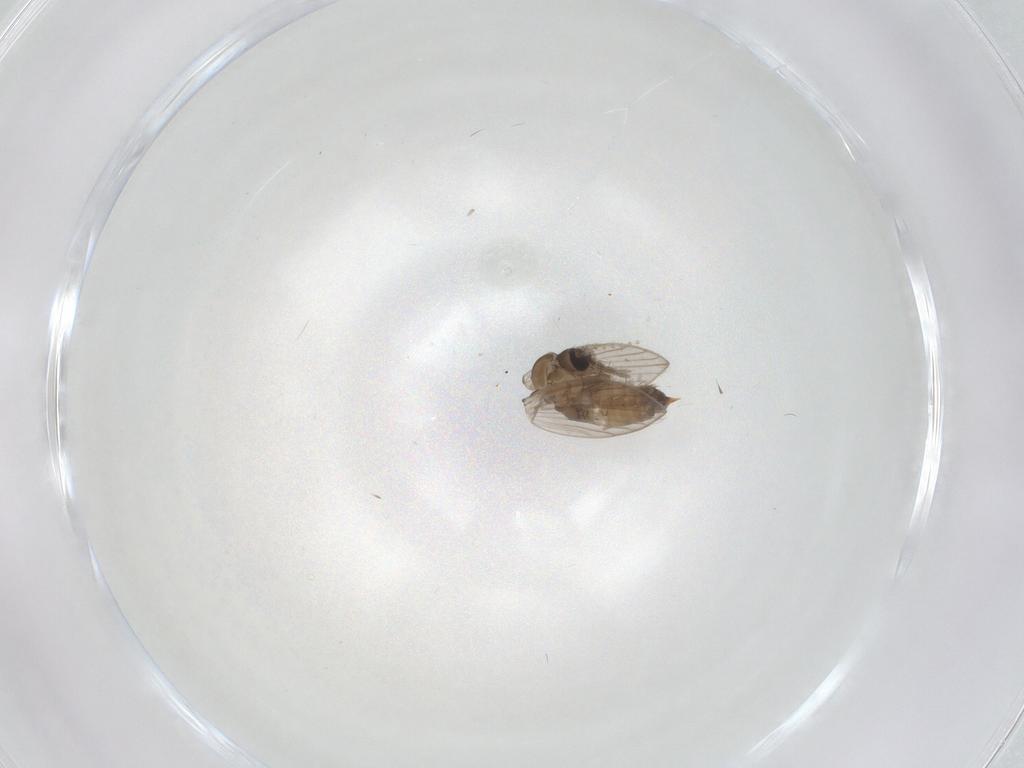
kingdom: Animalia
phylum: Arthropoda
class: Insecta
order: Diptera
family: Psychodidae
